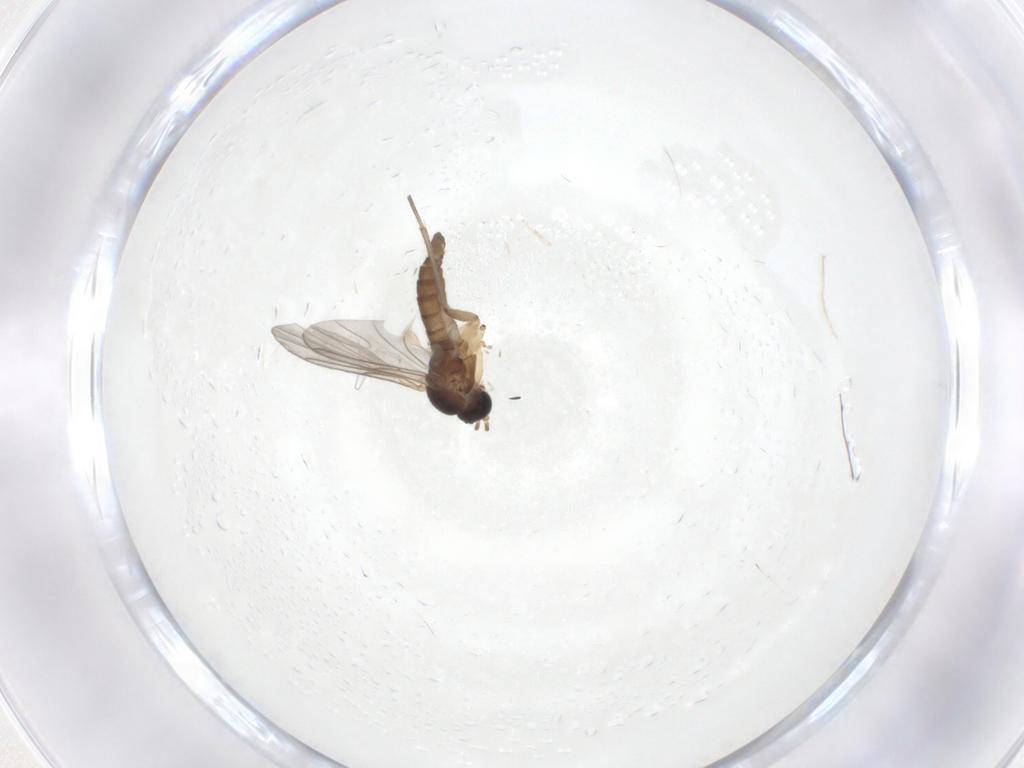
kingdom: Animalia
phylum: Arthropoda
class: Insecta
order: Diptera
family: Sciaridae
